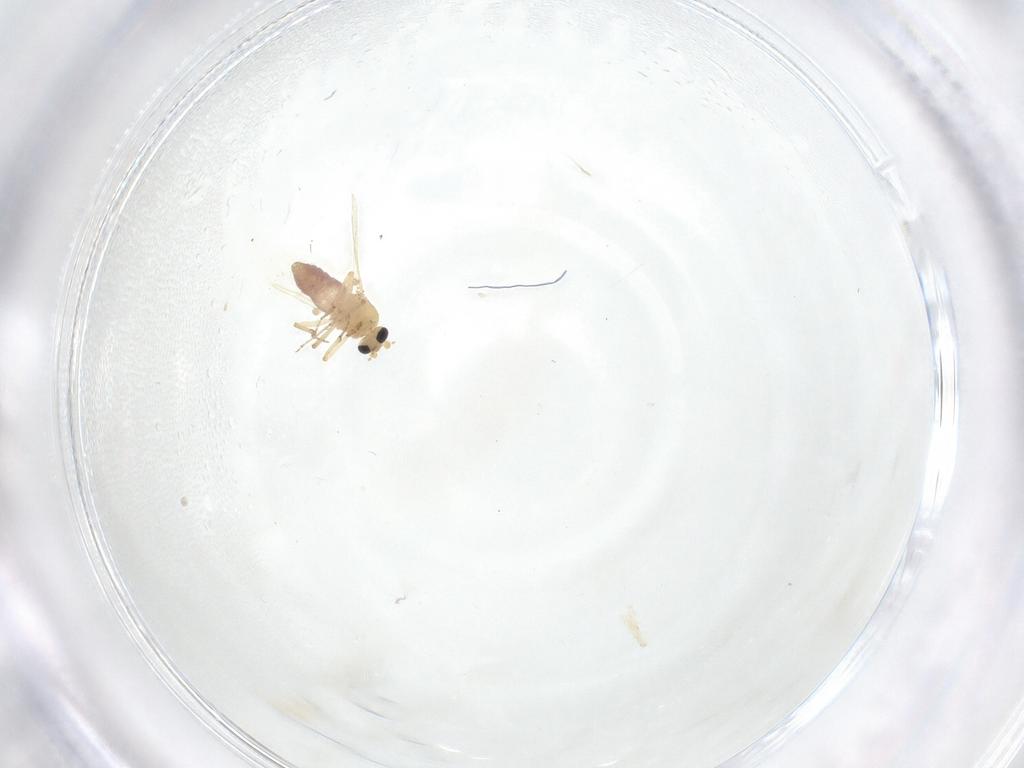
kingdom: Animalia
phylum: Arthropoda
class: Insecta
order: Diptera
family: Ceratopogonidae
